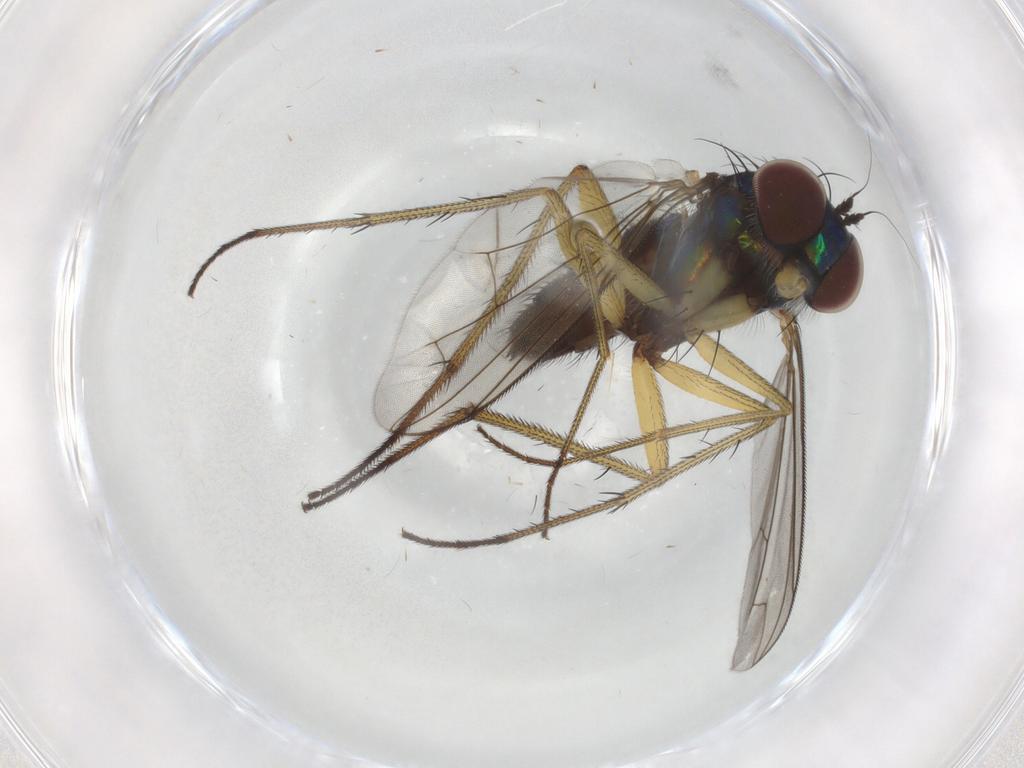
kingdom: Animalia
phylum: Arthropoda
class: Insecta
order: Diptera
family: Dolichopodidae
